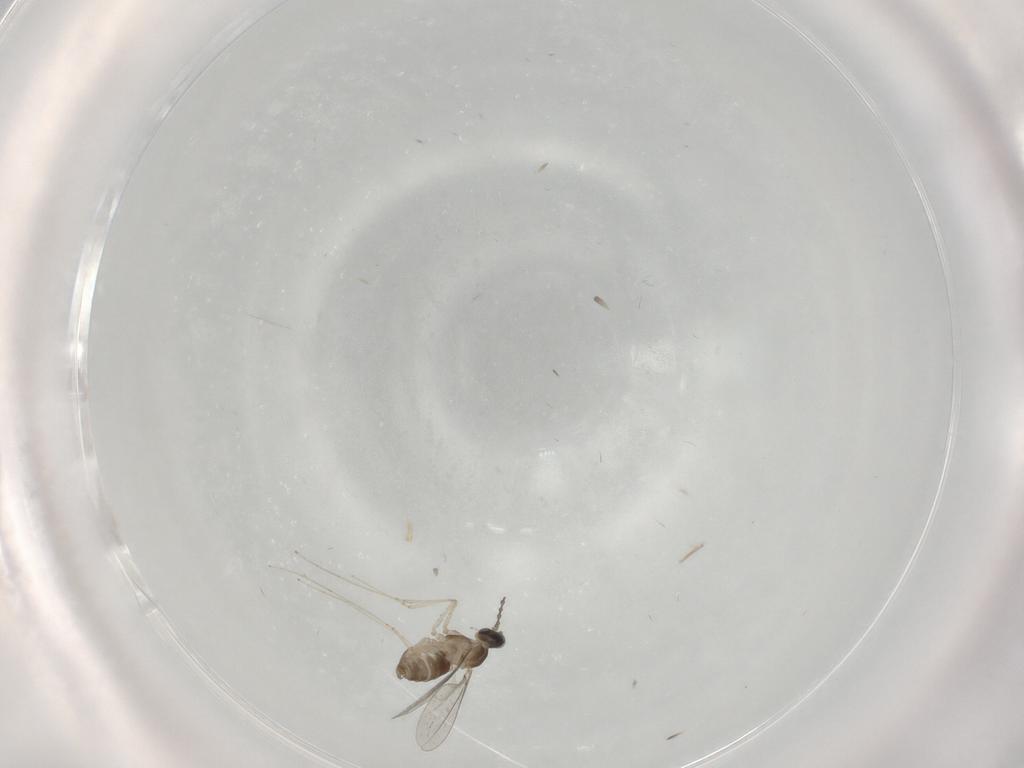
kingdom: Animalia
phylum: Arthropoda
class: Insecta
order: Diptera
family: Cecidomyiidae
